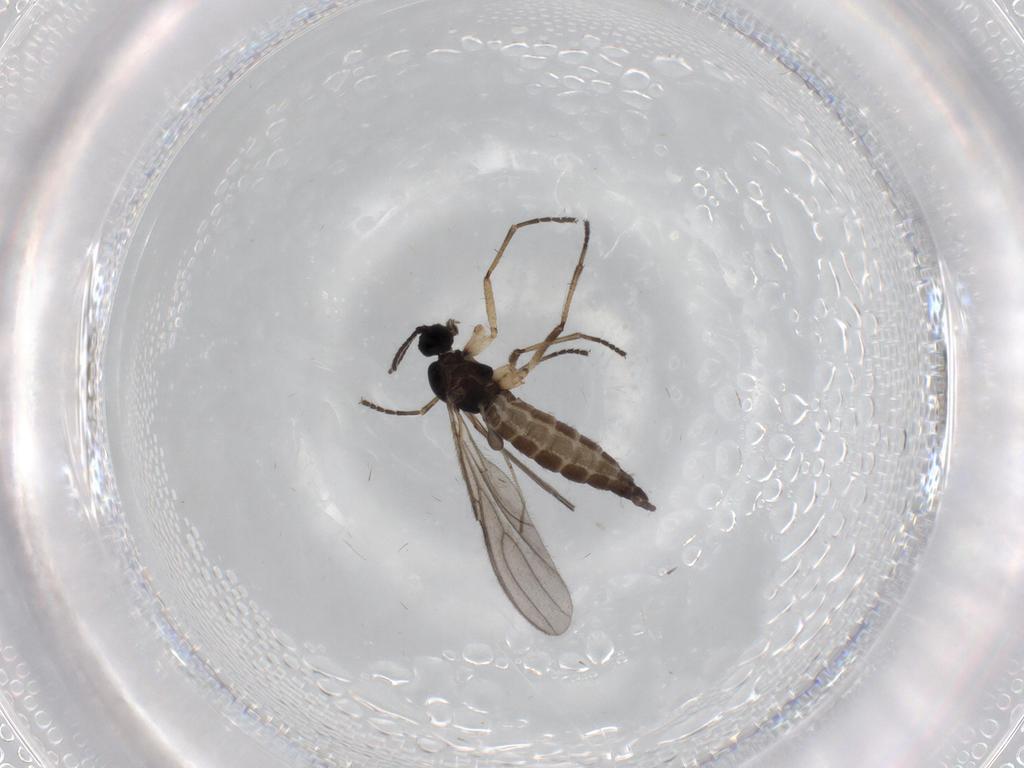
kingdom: Animalia
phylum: Arthropoda
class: Insecta
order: Diptera
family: Sciaridae
